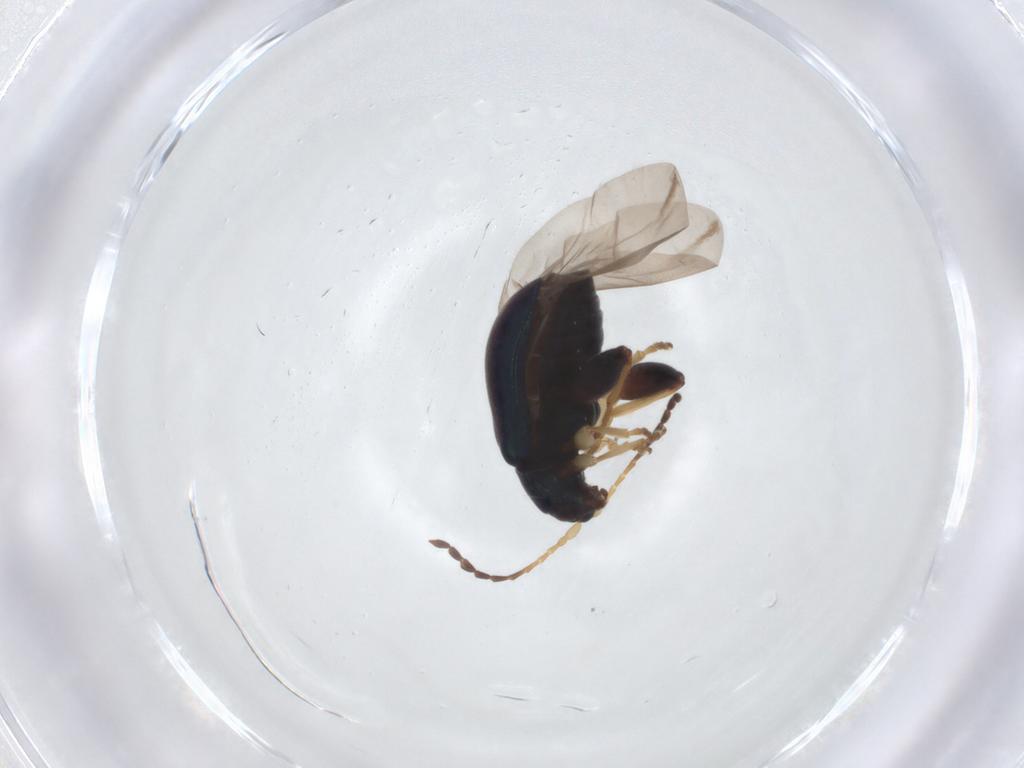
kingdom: Animalia
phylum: Arthropoda
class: Insecta
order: Coleoptera
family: Chrysomelidae
